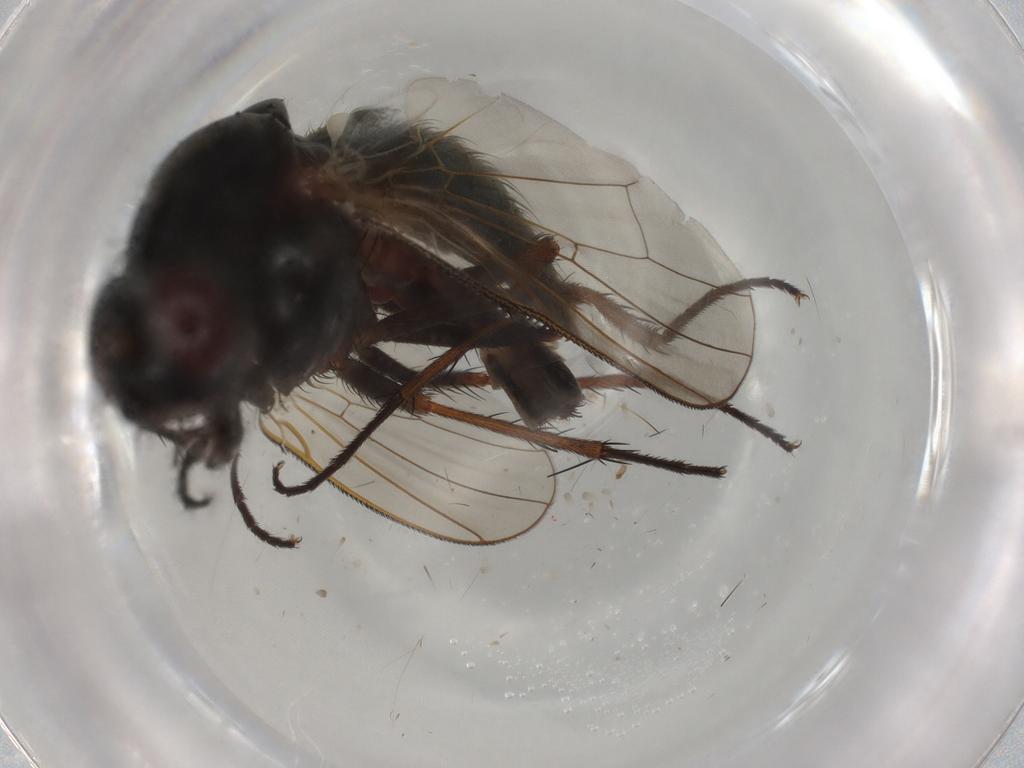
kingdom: Animalia
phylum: Arthropoda
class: Insecta
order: Diptera
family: Anthomyiidae
